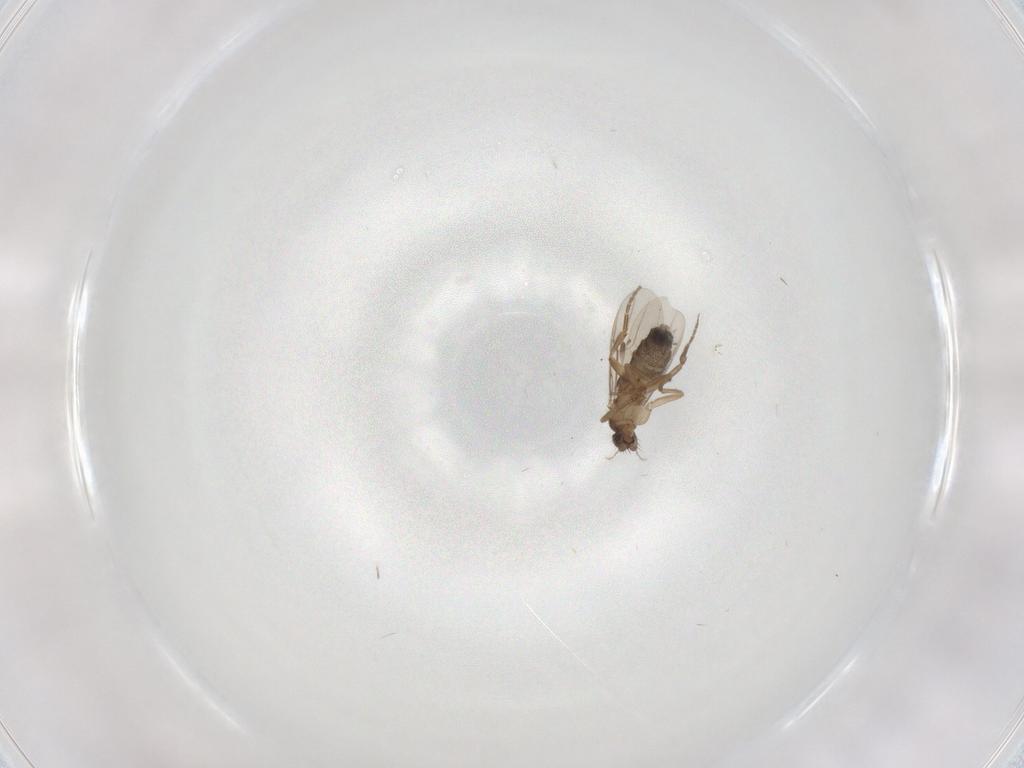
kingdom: Animalia
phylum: Arthropoda
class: Insecta
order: Diptera
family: Phoridae
